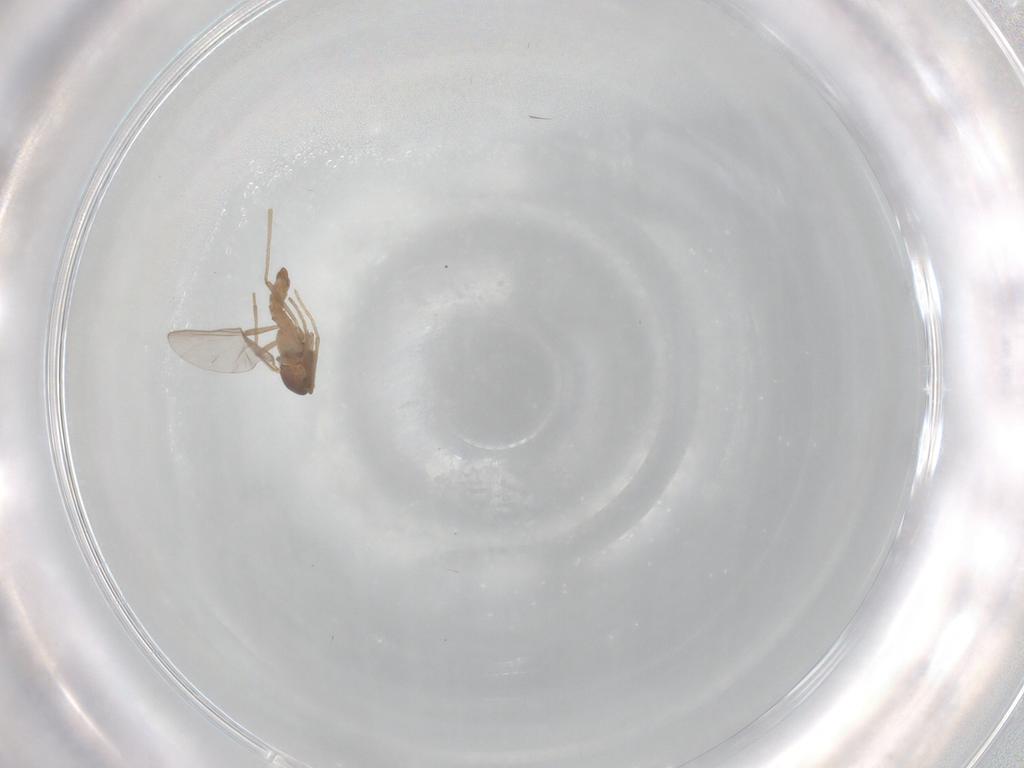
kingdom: Animalia
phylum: Arthropoda
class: Insecta
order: Diptera
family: Cecidomyiidae
